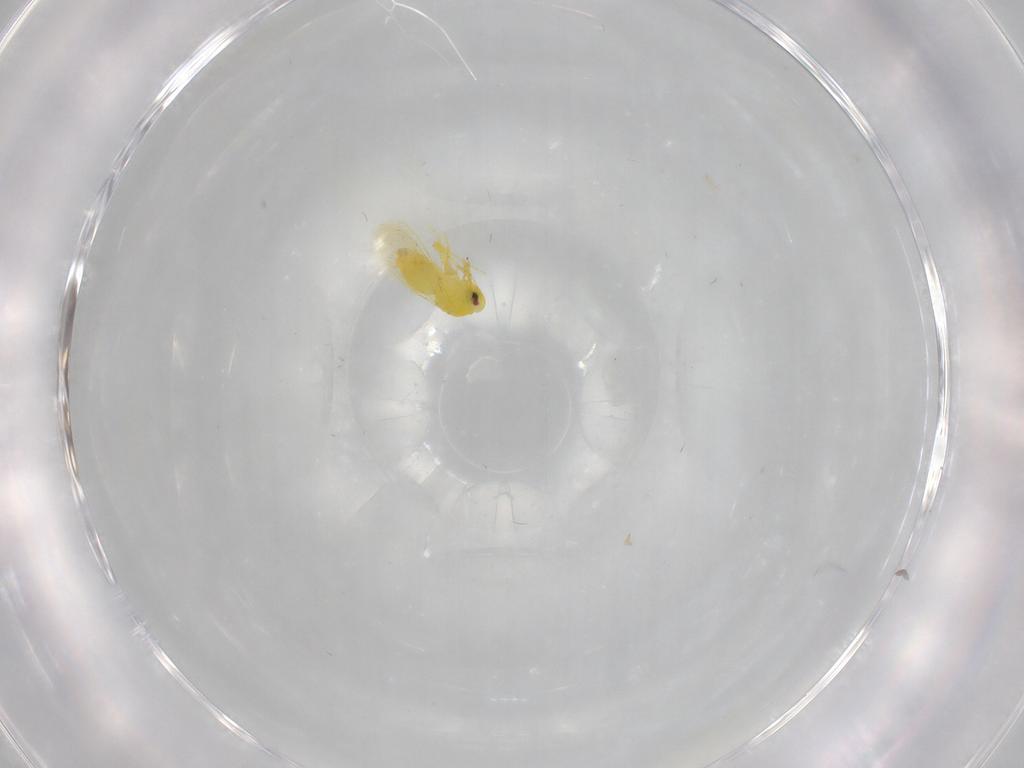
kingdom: Animalia
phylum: Arthropoda
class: Insecta
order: Hemiptera
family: Aleyrodidae
